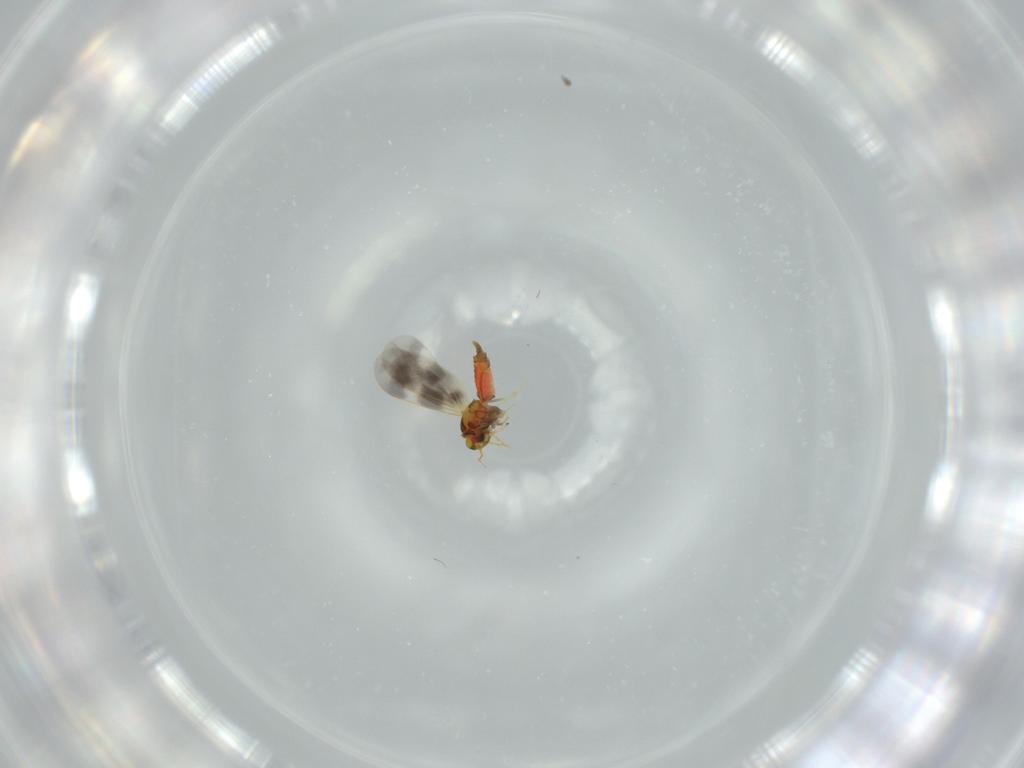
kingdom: Animalia
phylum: Arthropoda
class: Insecta
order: Hemiptera
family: Aleyrodidae
